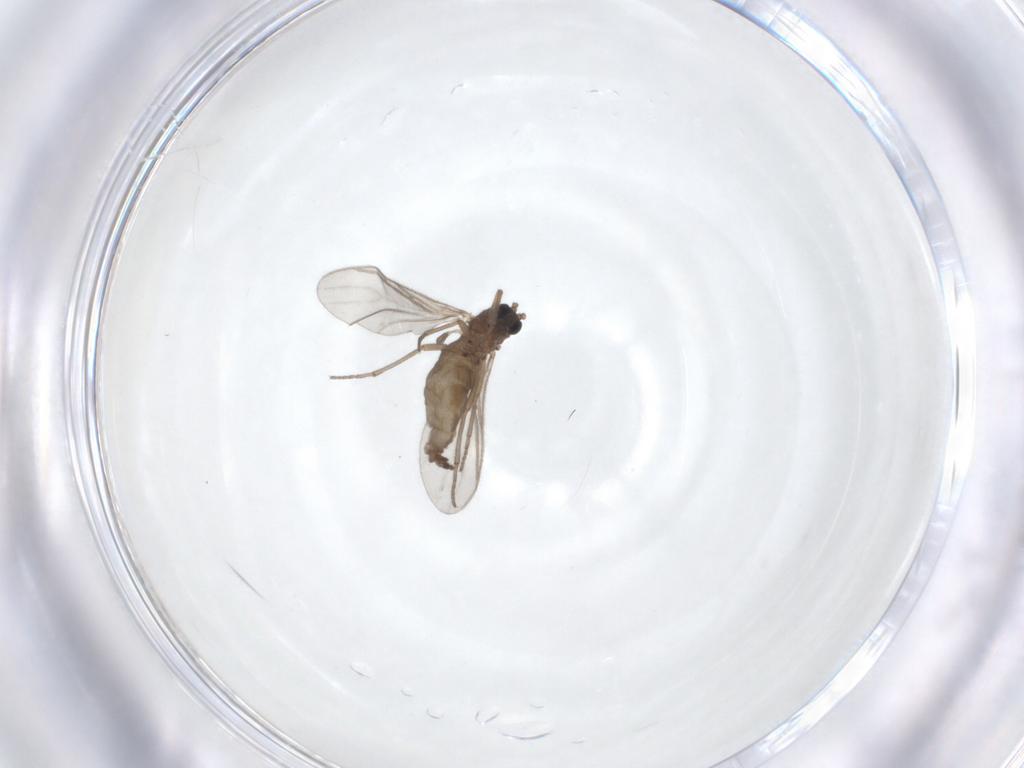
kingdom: Animalia
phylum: Arthropoda
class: Insecta
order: Diptera
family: Sciaridae
